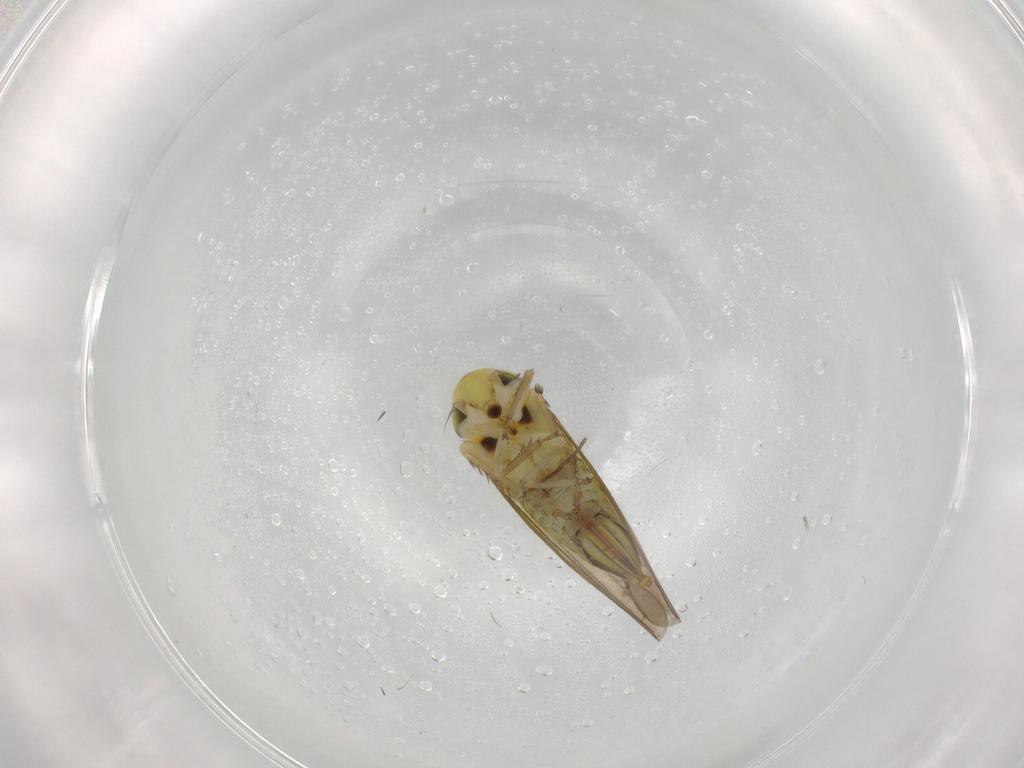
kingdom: Animalia
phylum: Arthropoda
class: Insecta
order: Hemiptera
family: Cicadellidae
